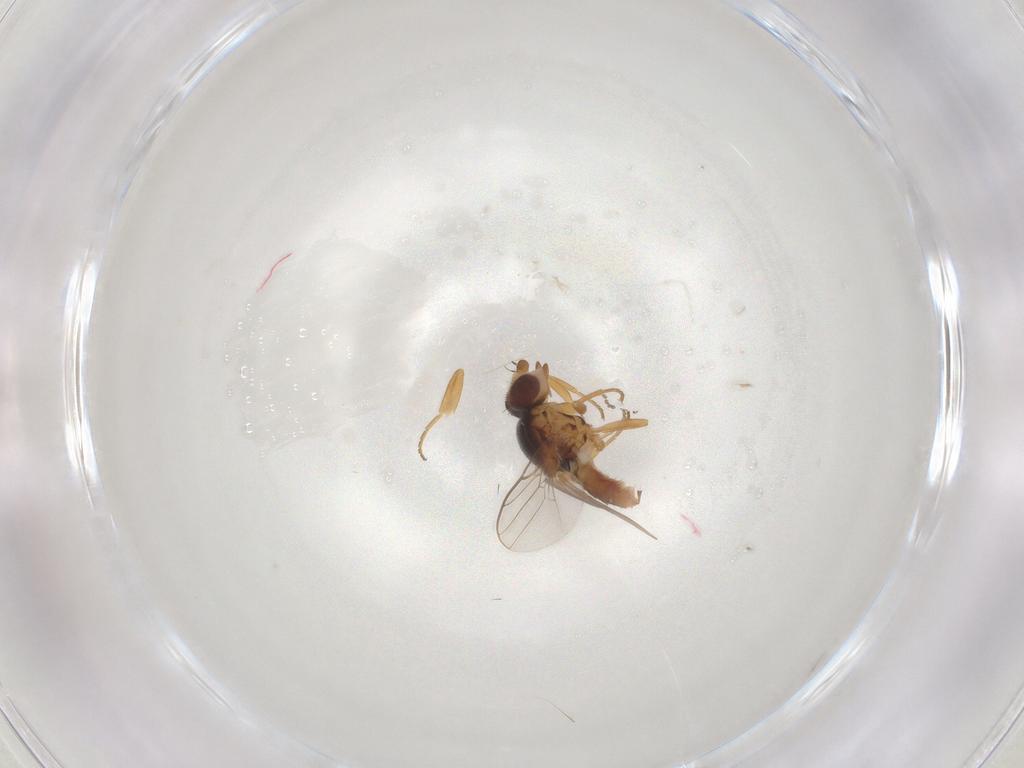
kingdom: Animalia
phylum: Arthropoda
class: Insecta
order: Diptera
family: Chloropidae
